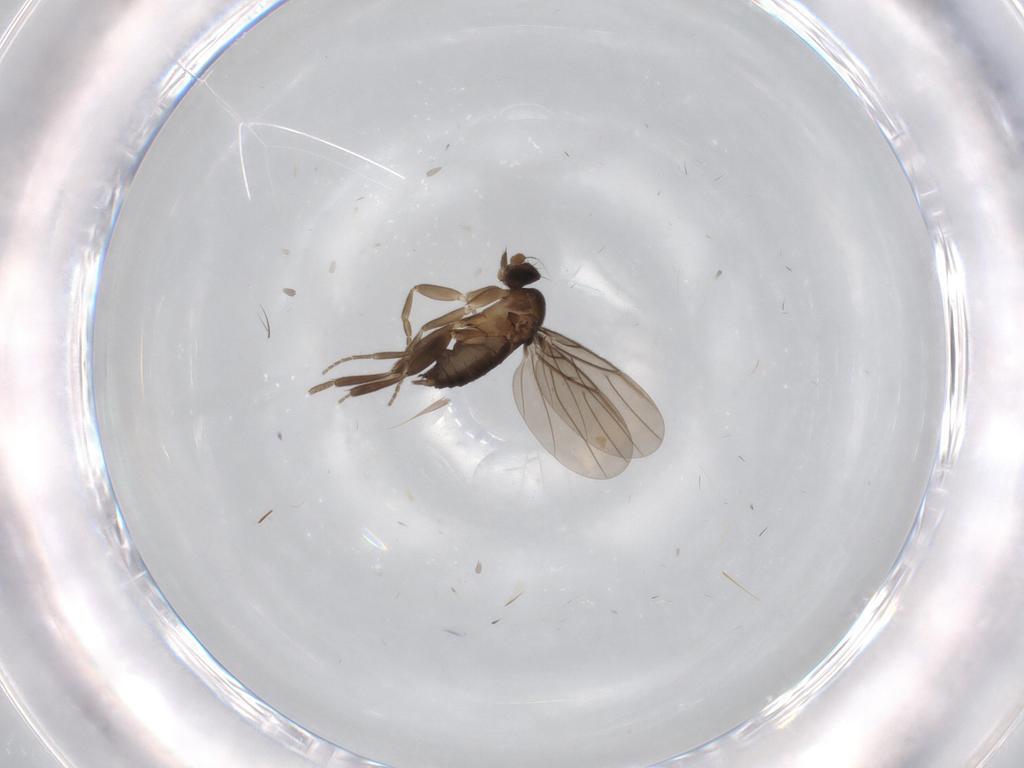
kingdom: Animalia
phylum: Arthropoda
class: Insecta
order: Diptera
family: Phoridae
